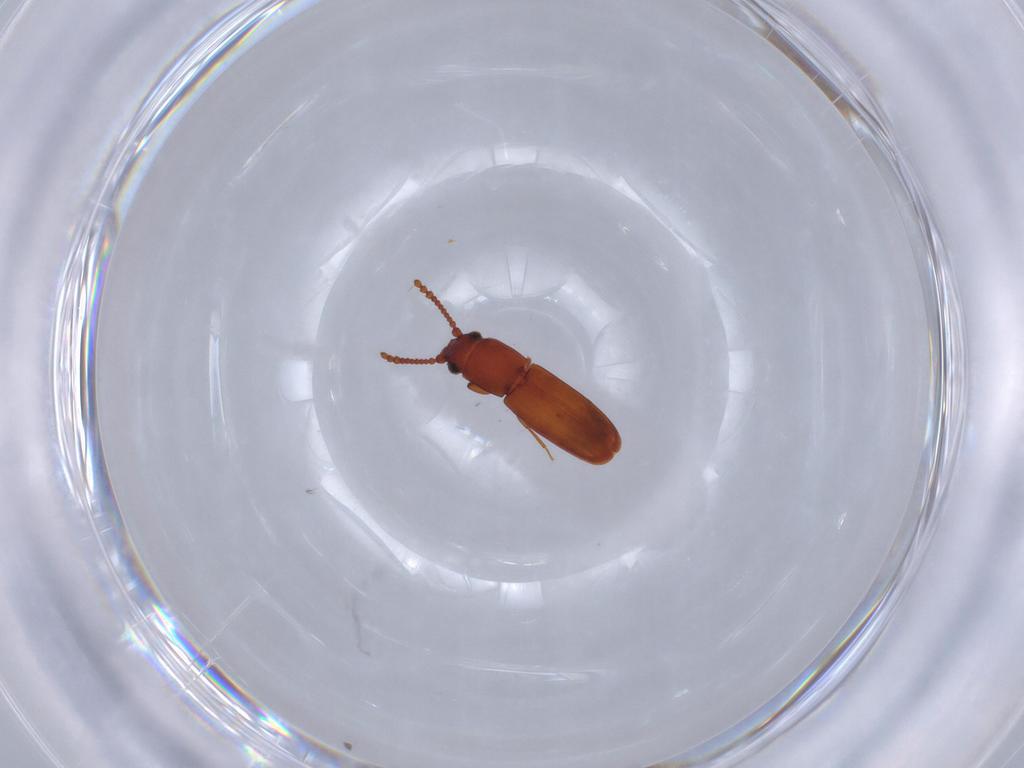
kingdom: Animalia
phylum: Arthropoda
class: Insecta
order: Coleoptera
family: Laemophloeidae
